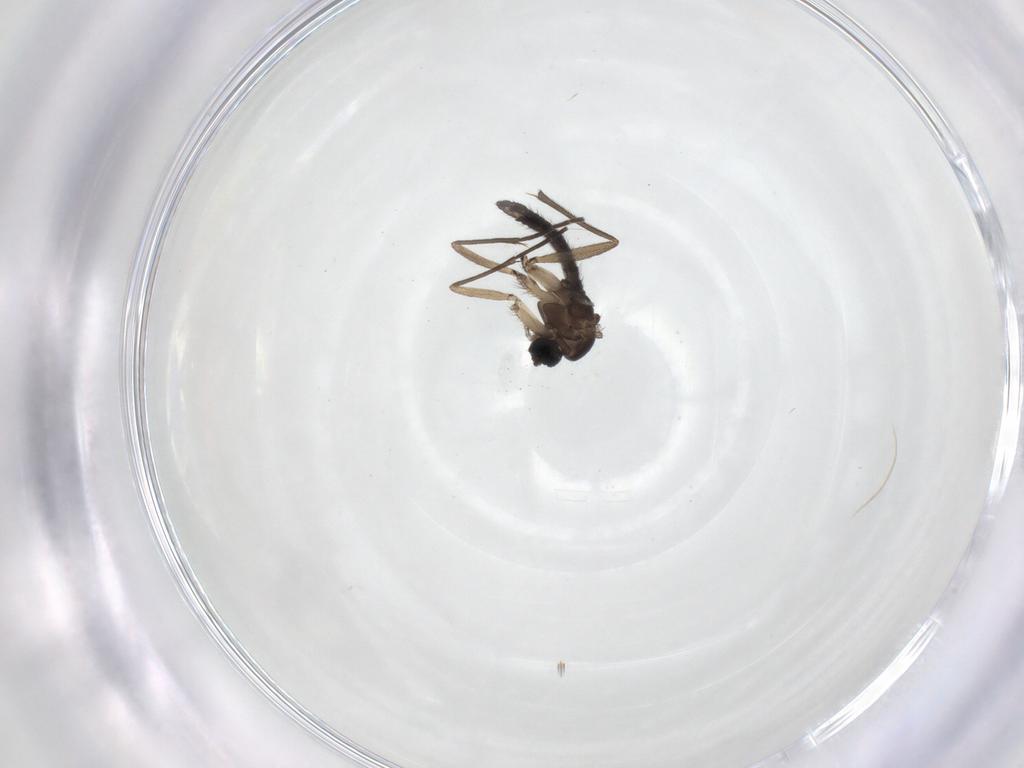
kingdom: Animalia
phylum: Arthropoda
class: Insecta
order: Diptera
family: Sciaridae
